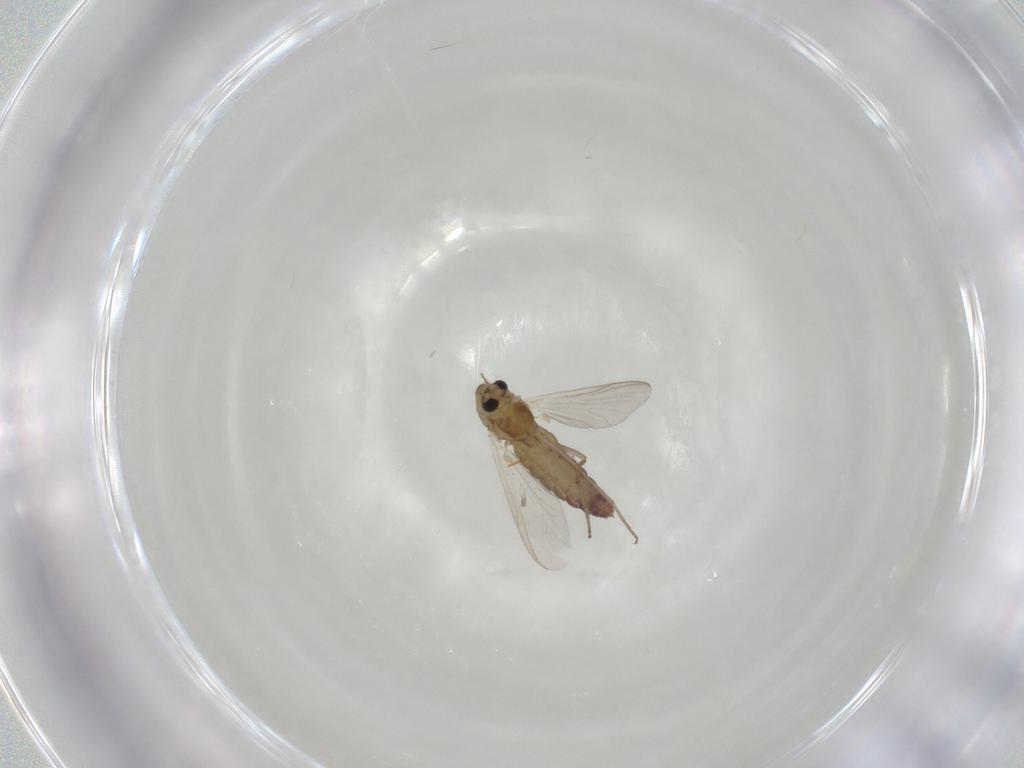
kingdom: Animalia
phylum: Arthropoda
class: Insecta
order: Diptera
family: Chironomidae
